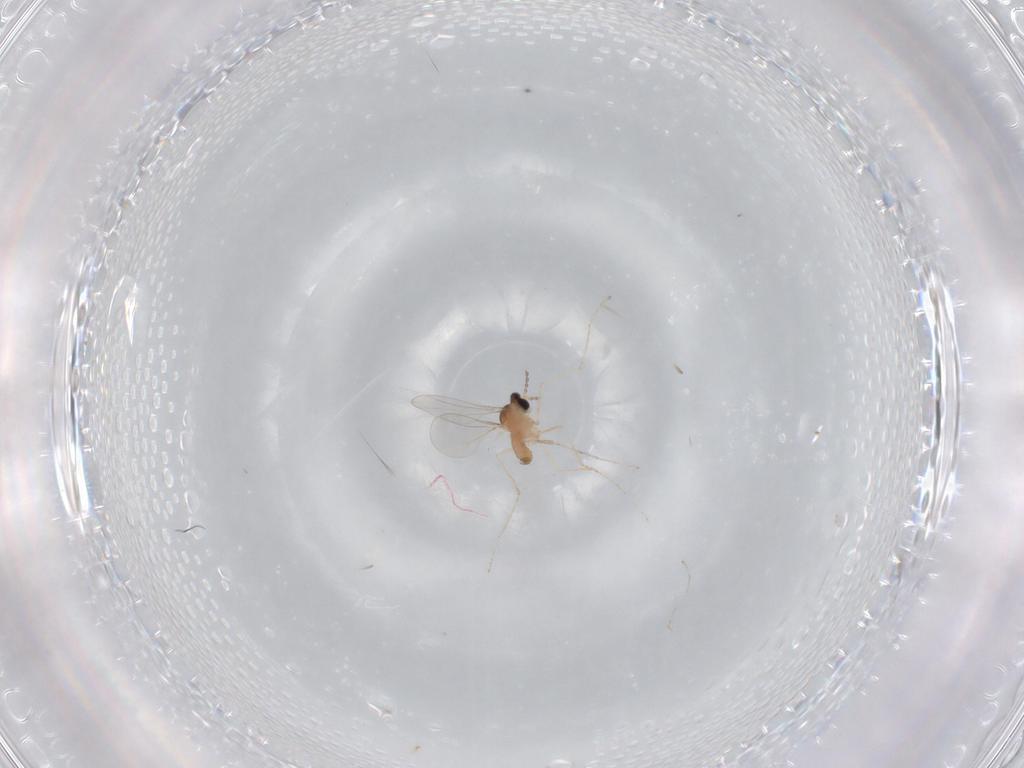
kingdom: Animalia
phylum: Arthropoda
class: Insecta
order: Diptera
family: Cecidomyiidae
